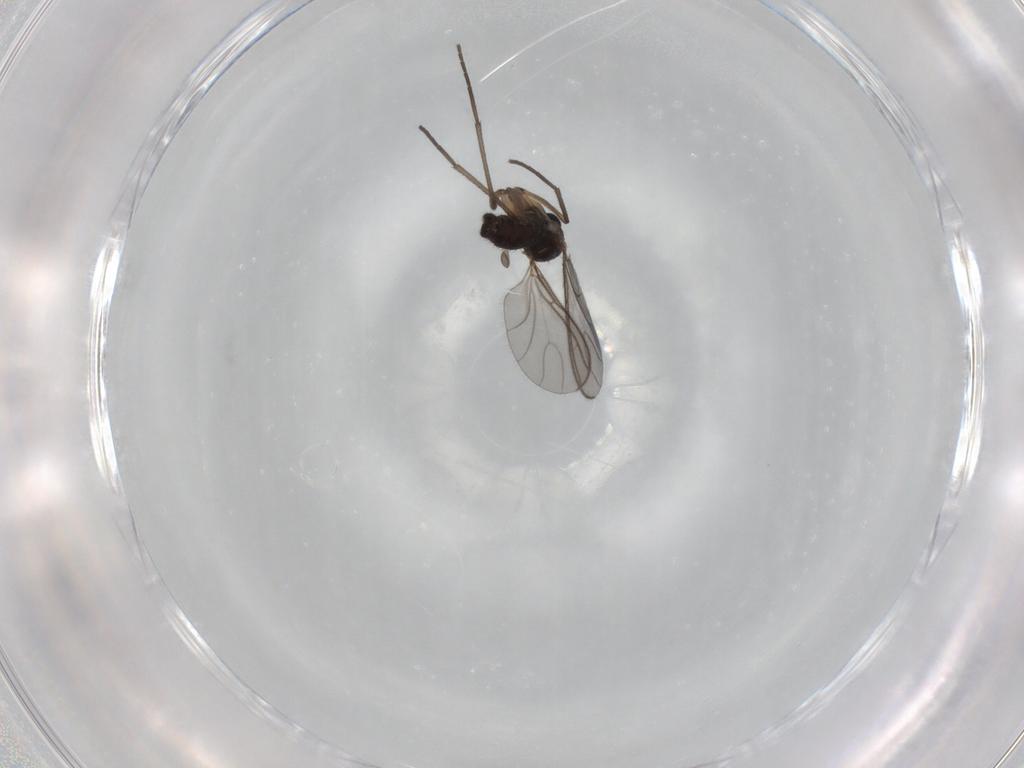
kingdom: Animalia
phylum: Arthropoda
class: Insecta
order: Diptera
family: Sciaridae
